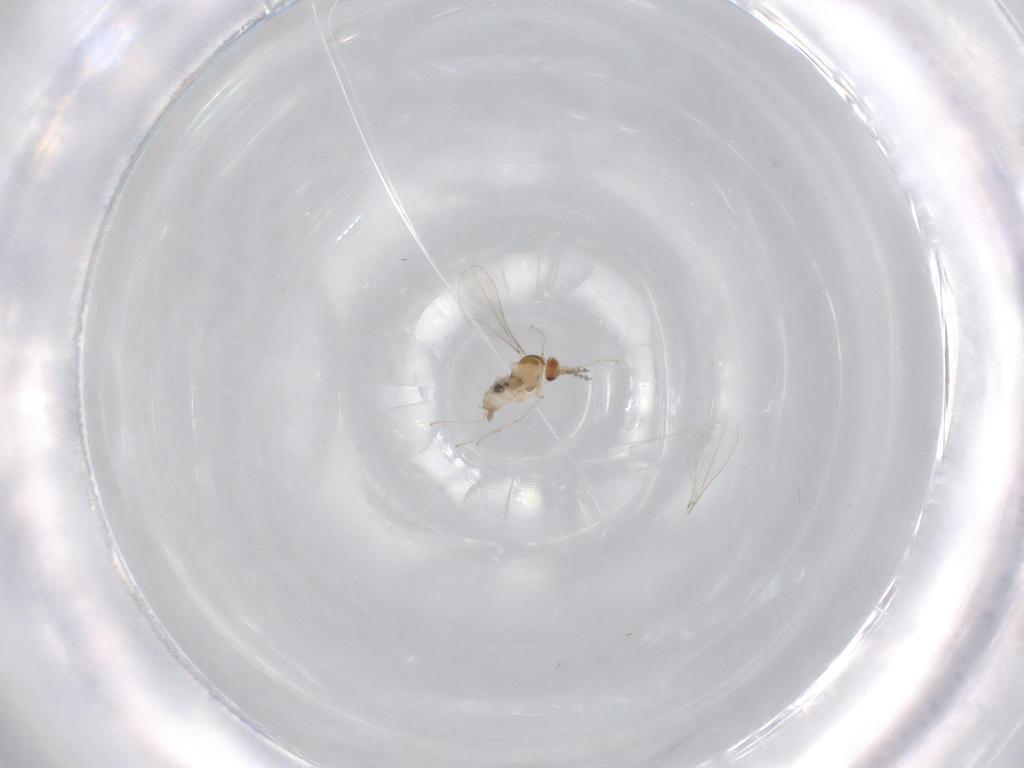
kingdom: Animalia
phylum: Arthropoda
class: Insecta
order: Diptera
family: Cecidomyiidae
